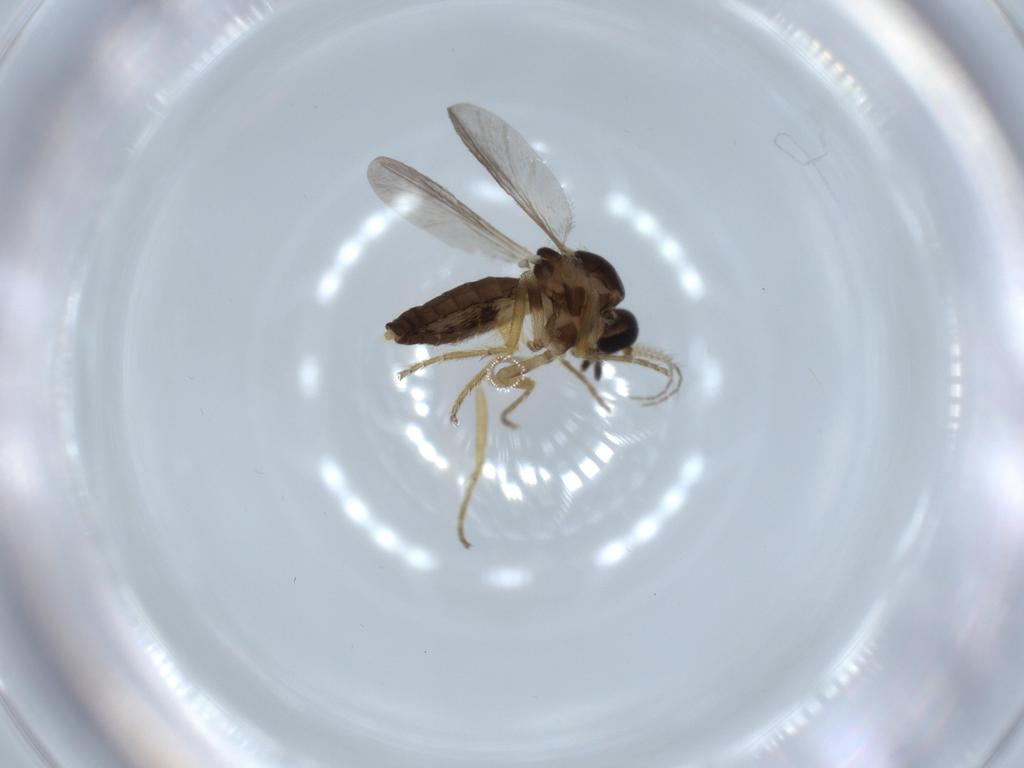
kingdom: Animalia
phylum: Arthropoda
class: Insecta
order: Diptera
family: Ceratopogonidae
